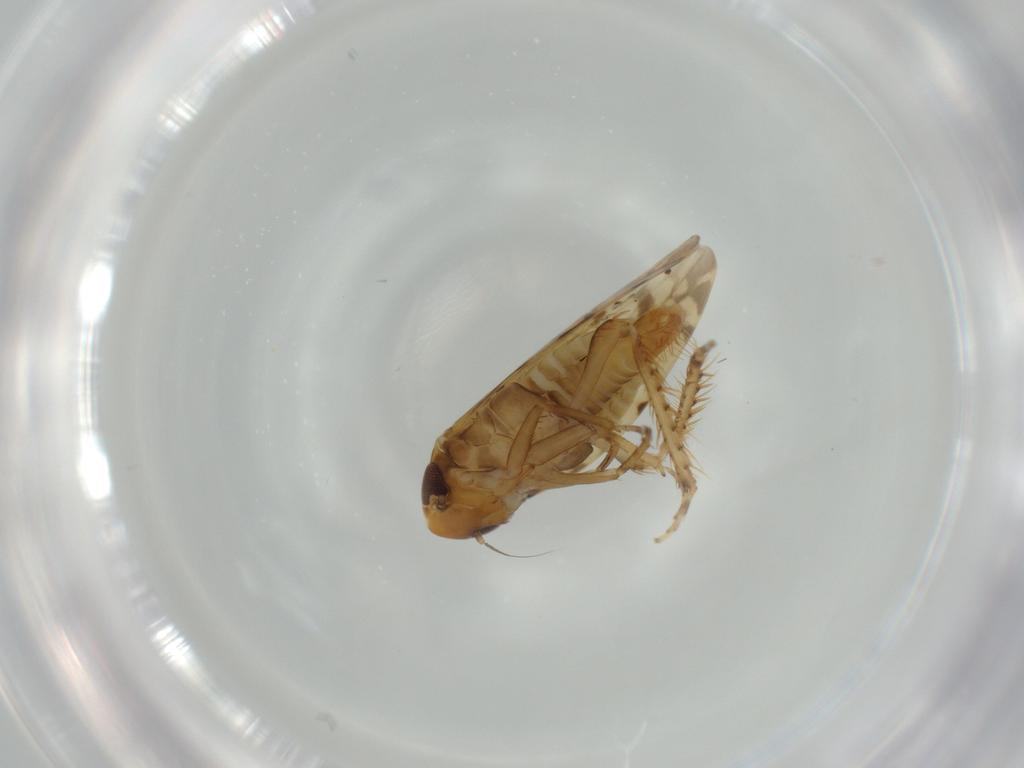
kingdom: Animalia
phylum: Arthropoda
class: Insecta
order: Hemiptera
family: Cicadellidae
